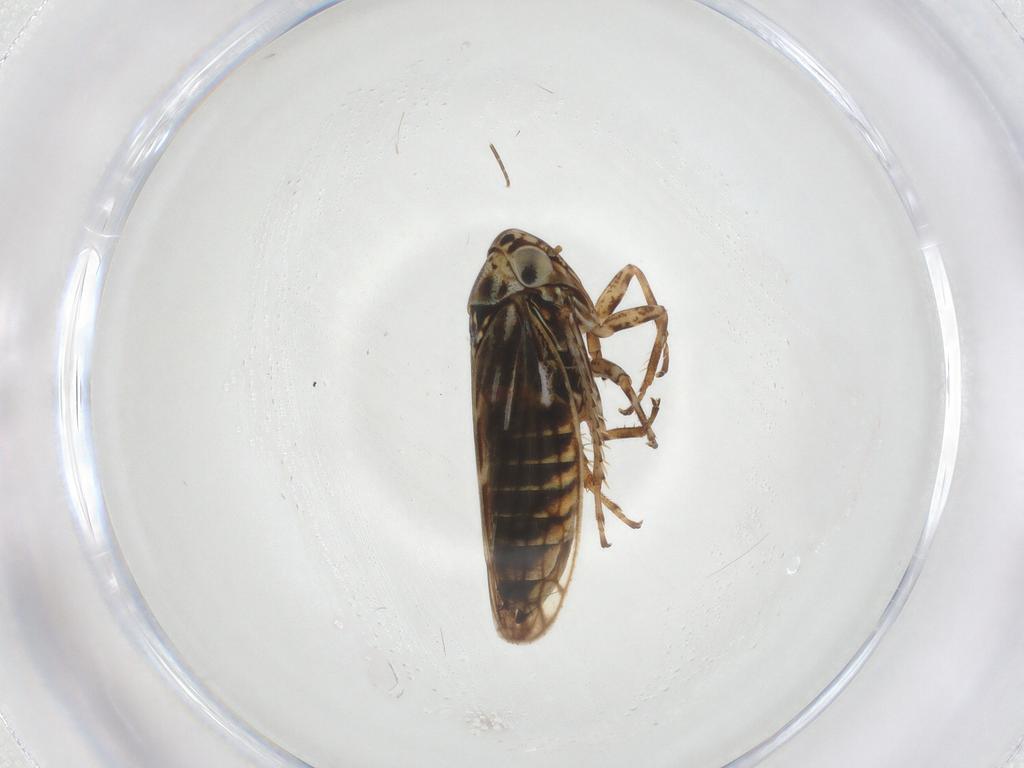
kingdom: Animalia
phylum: Arthropoda
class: Insecta
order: Hemiptera
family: Cicadellidae
